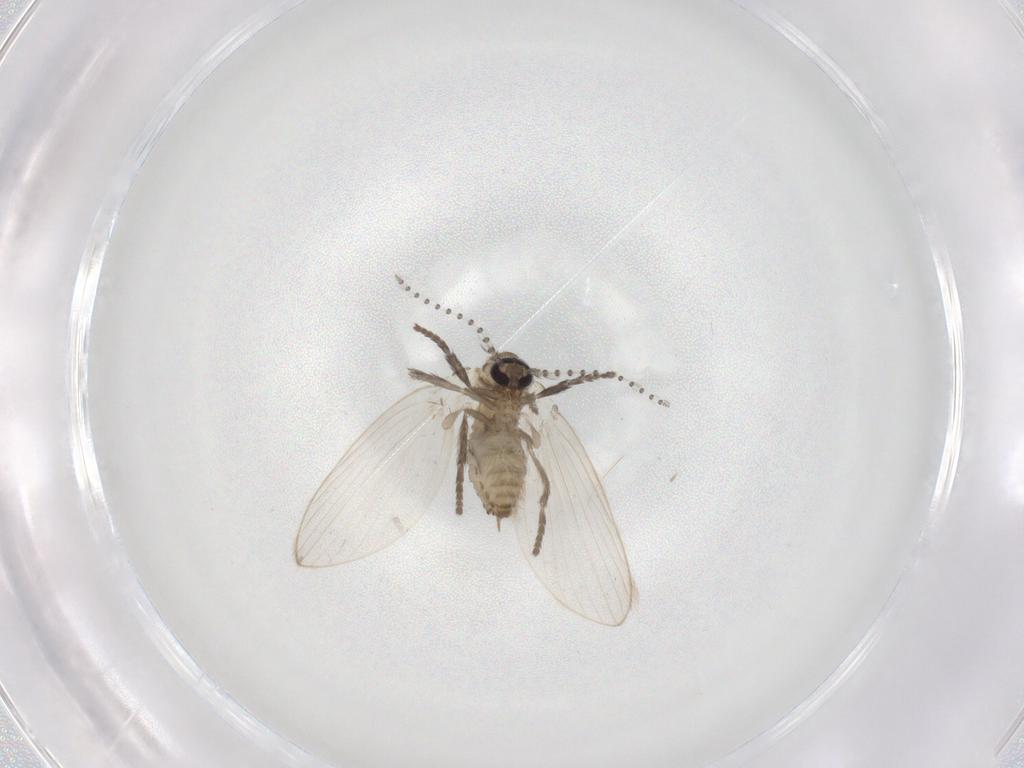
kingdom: Animalia
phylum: Arthropoda
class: Insecta
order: Diptera
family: Psychodidae
